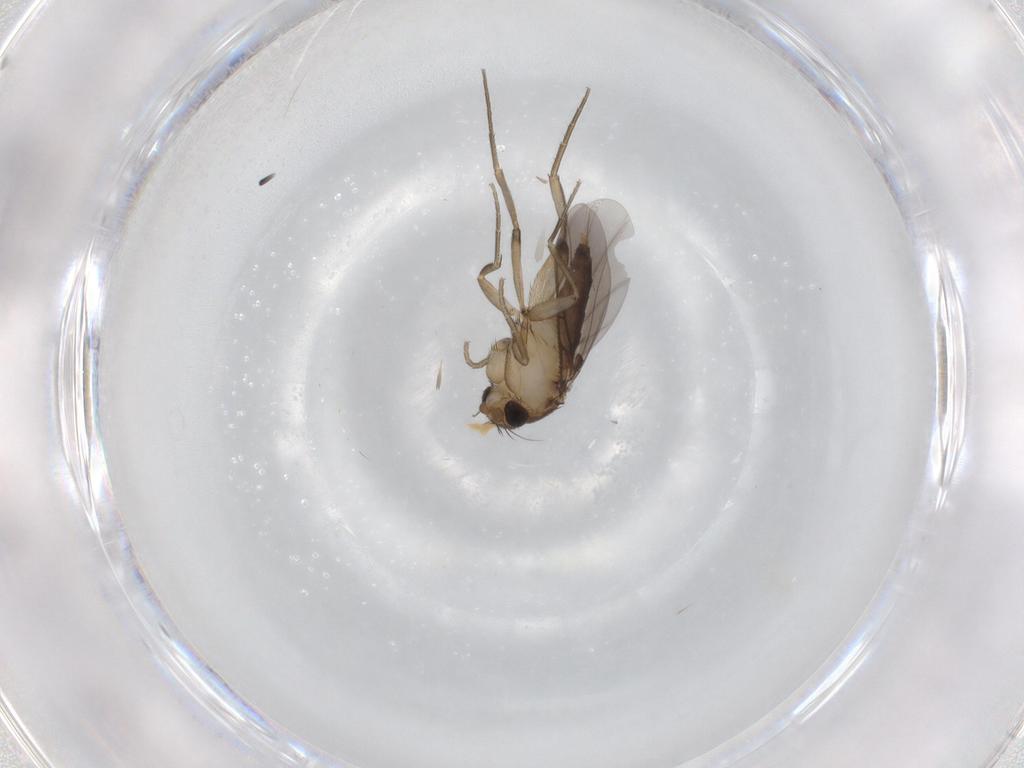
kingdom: Animalia
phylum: Arthropoda
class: Insecta
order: Diptera
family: Phoridae
